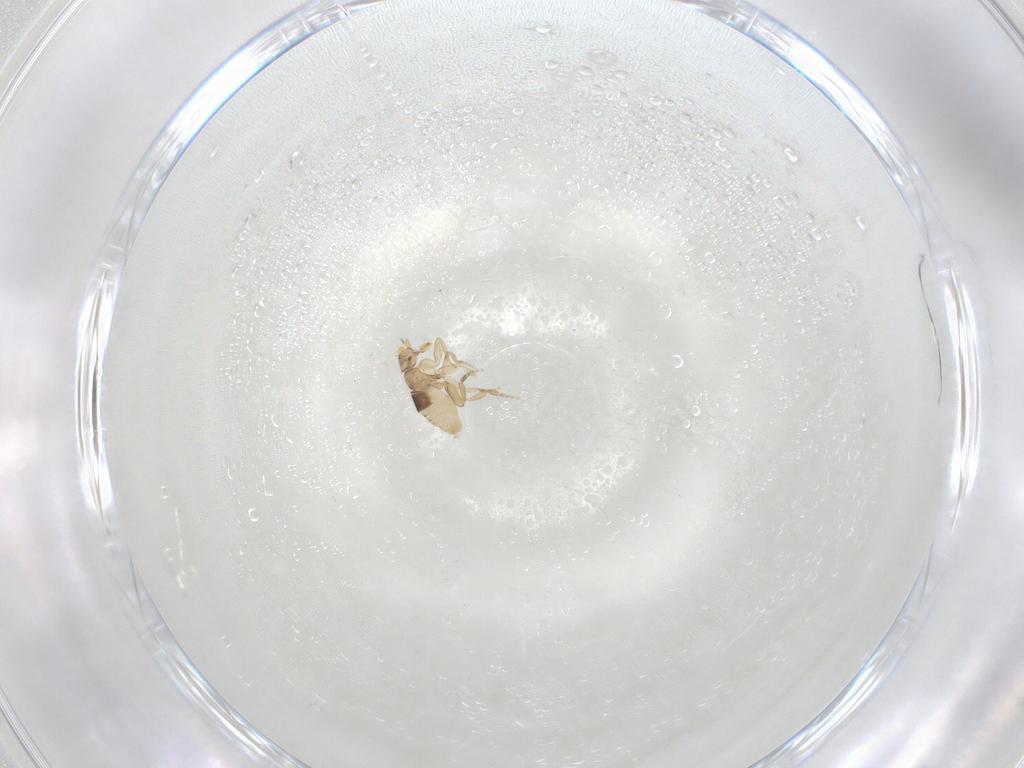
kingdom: Animalia
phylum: Arthropoda
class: Insecta
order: Diptera
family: Phoridae
